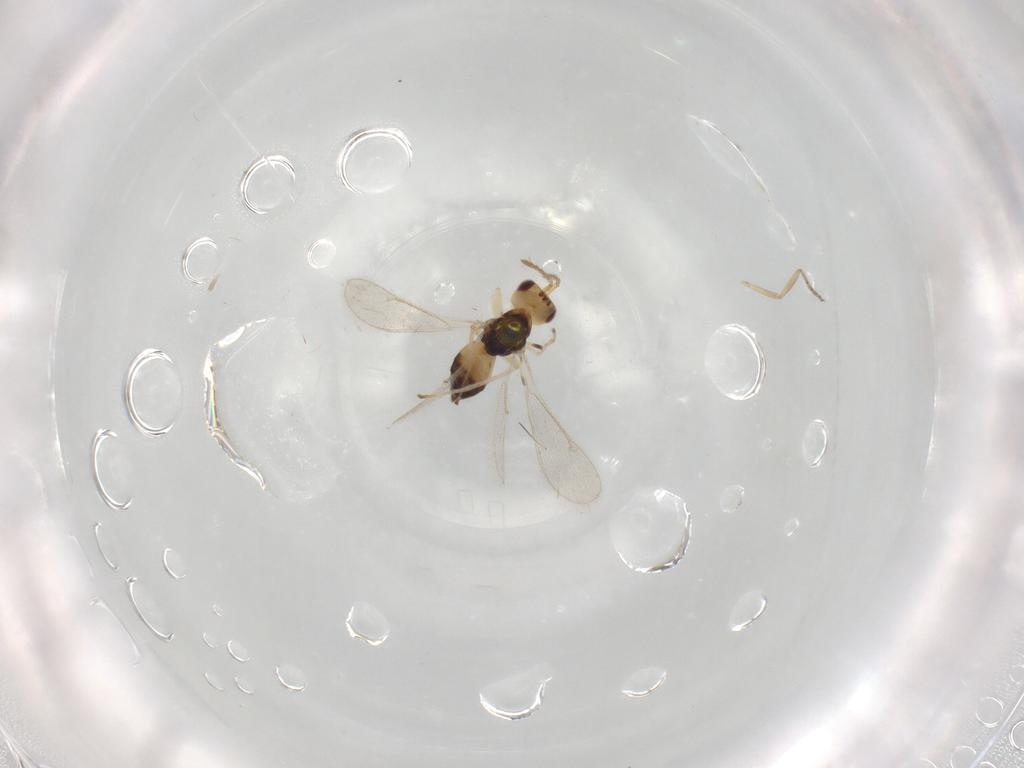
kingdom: Animalia
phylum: Arthropoda
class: Insecta
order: Hymenoptera
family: Eulophidae
